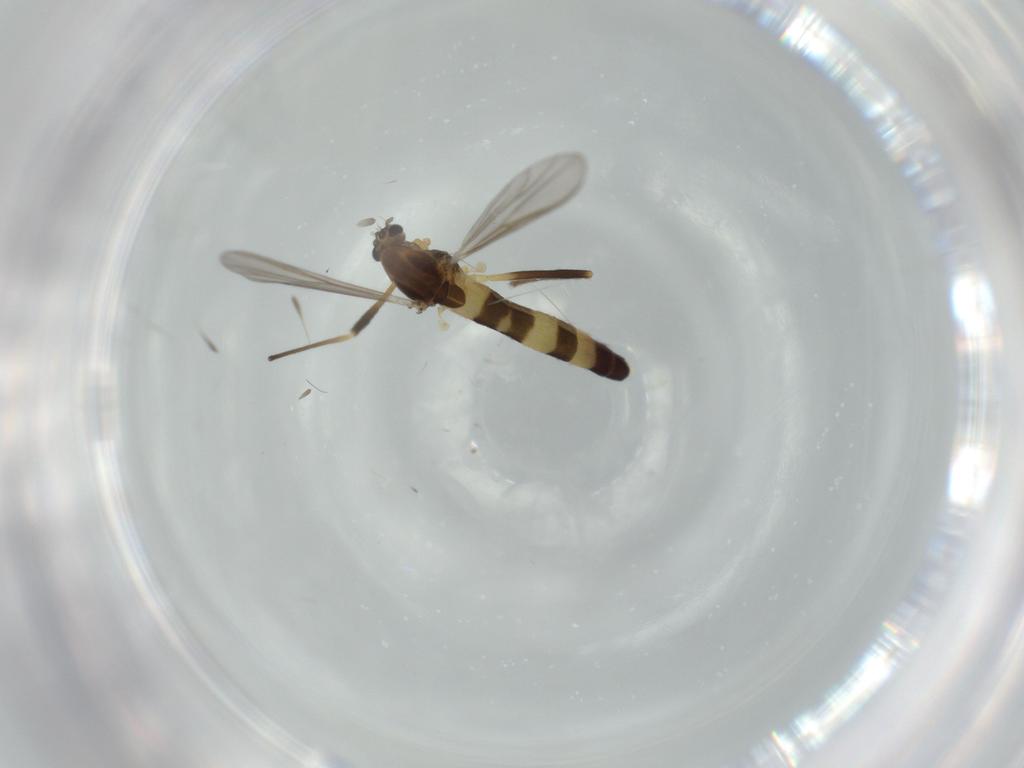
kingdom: Animalia
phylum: Arthropoda
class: Insecta
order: Diptera
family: Chironomidae
